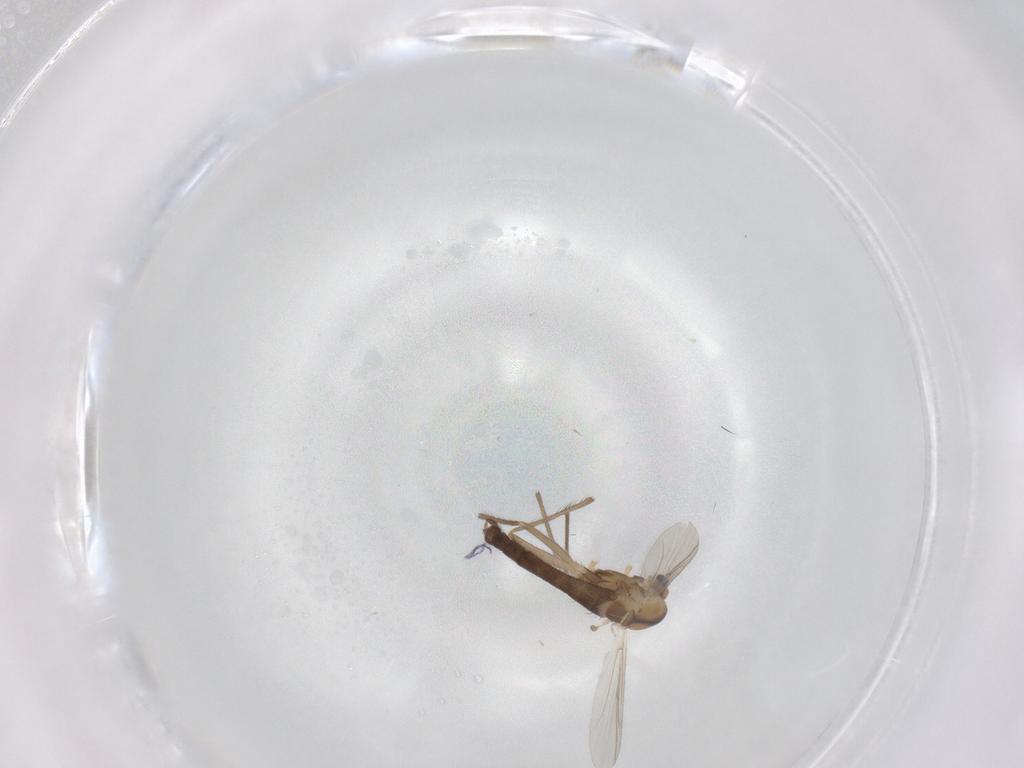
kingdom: Animalia
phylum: Arthropoda
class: Insecta
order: Diptera
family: Chironomidae
